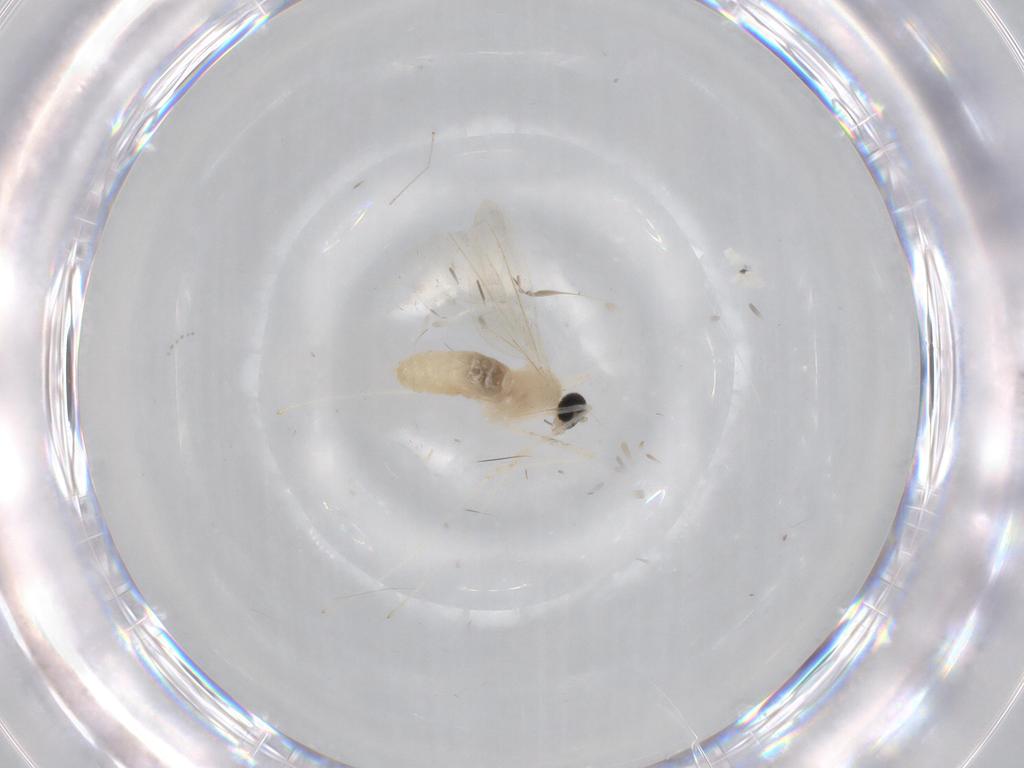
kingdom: Animalia
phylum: Arthropoda
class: Insecta
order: Diptera
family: Cecidomyiidae
